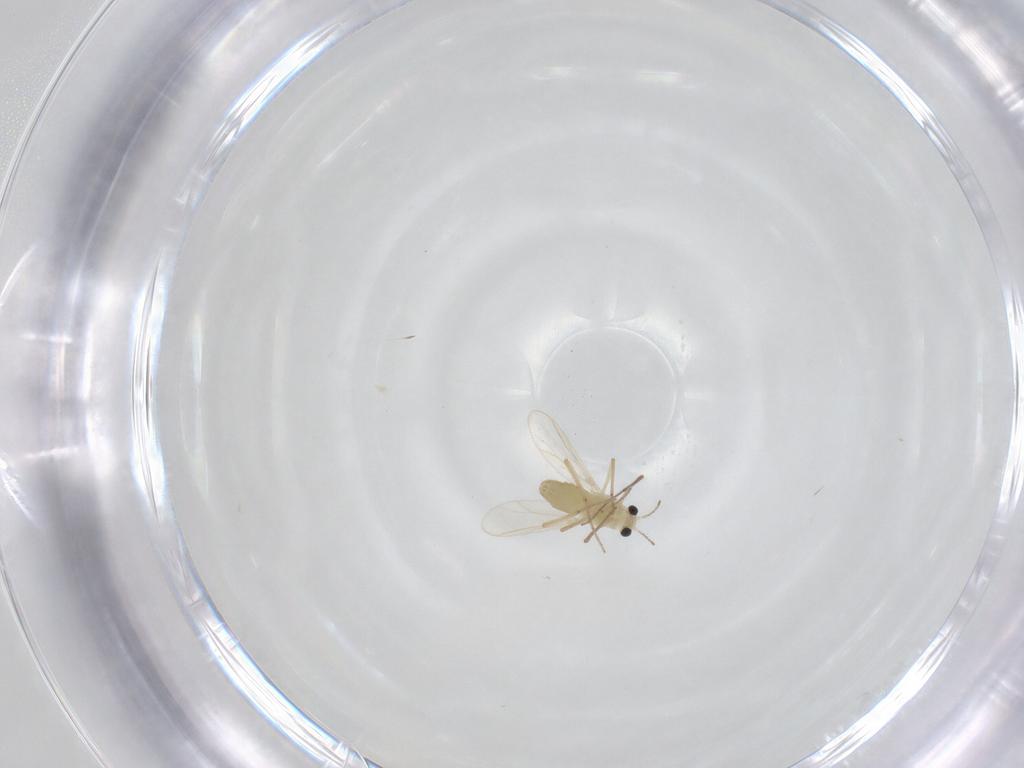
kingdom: Animalia
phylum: Arthropoda
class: Insecta
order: Diptera
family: Chironomidae
